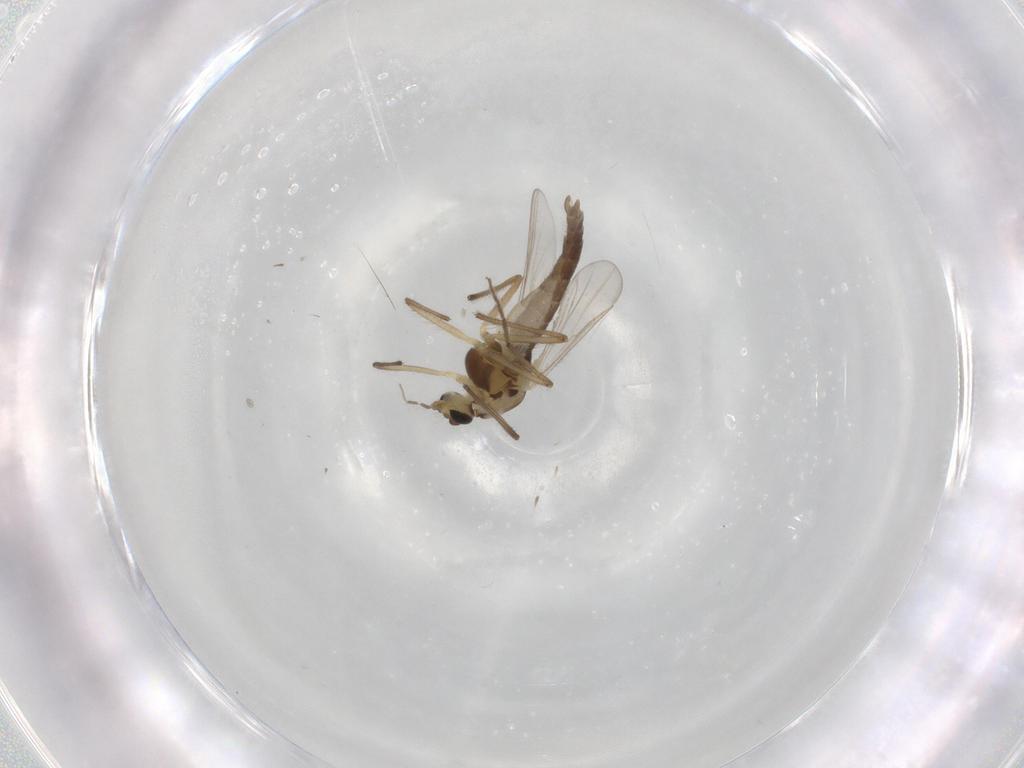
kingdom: Animalia
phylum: Arthropoda
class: Insecta
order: Diptera
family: Chironomidae
